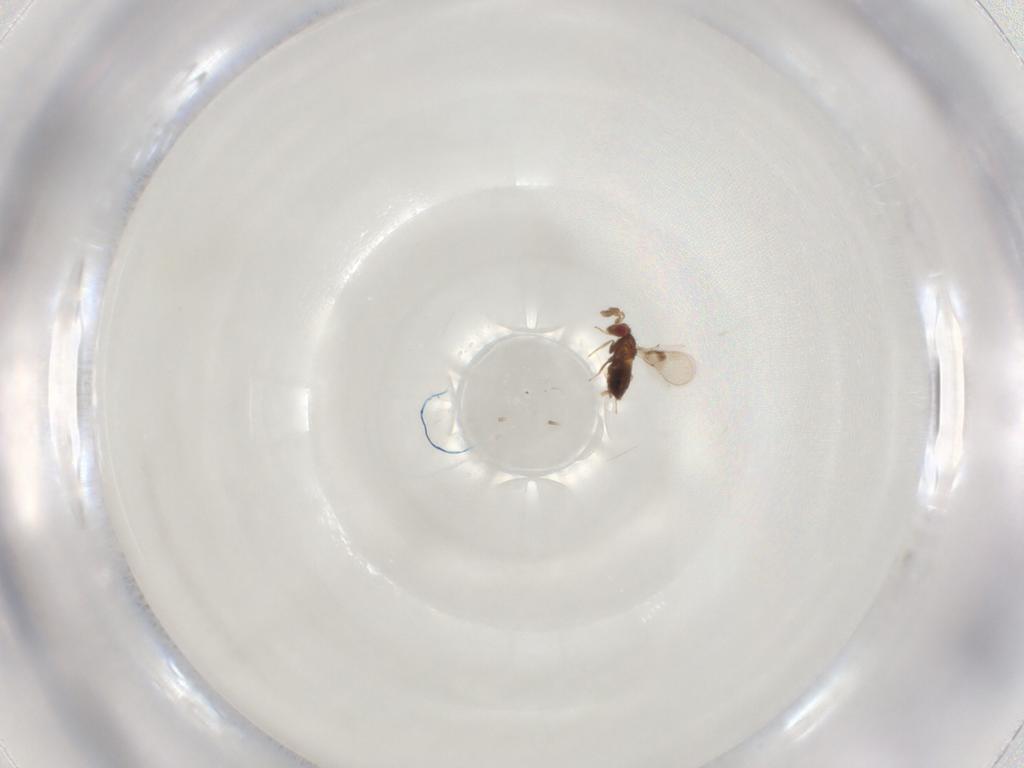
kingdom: Animalia
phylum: Arthropoda
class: Insecta
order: Hymenoptera
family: Trichogrammatidae
